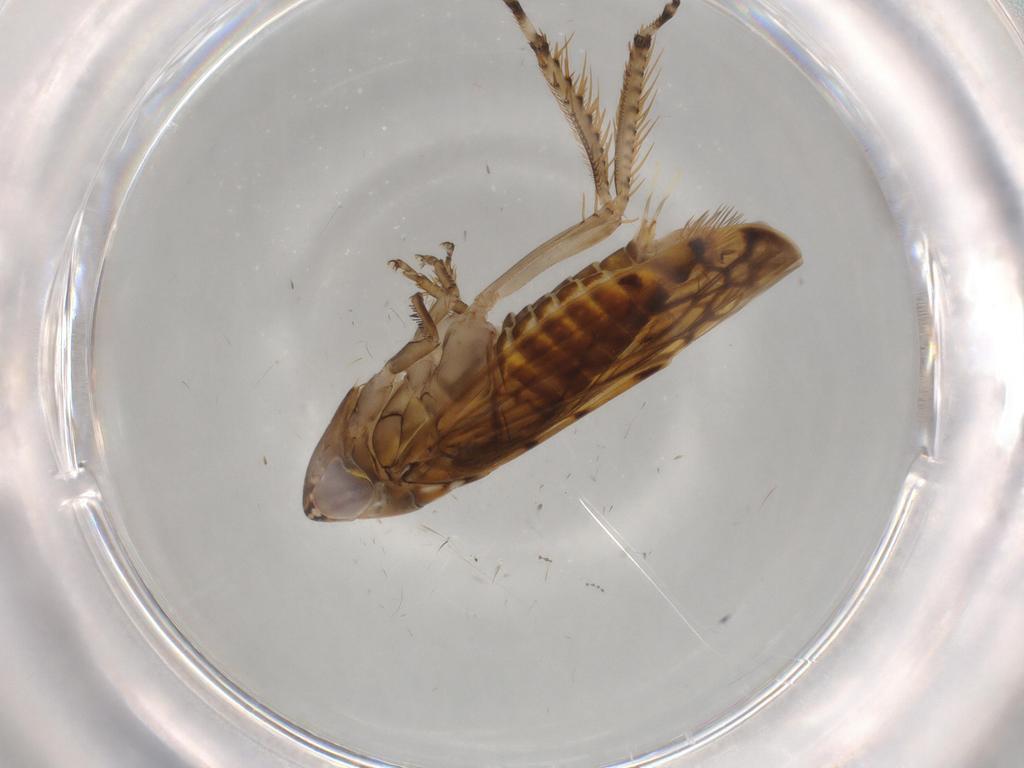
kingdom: Animalia
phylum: Arthropoda
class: Insecta
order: Hemiptera
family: Cicadellidae
